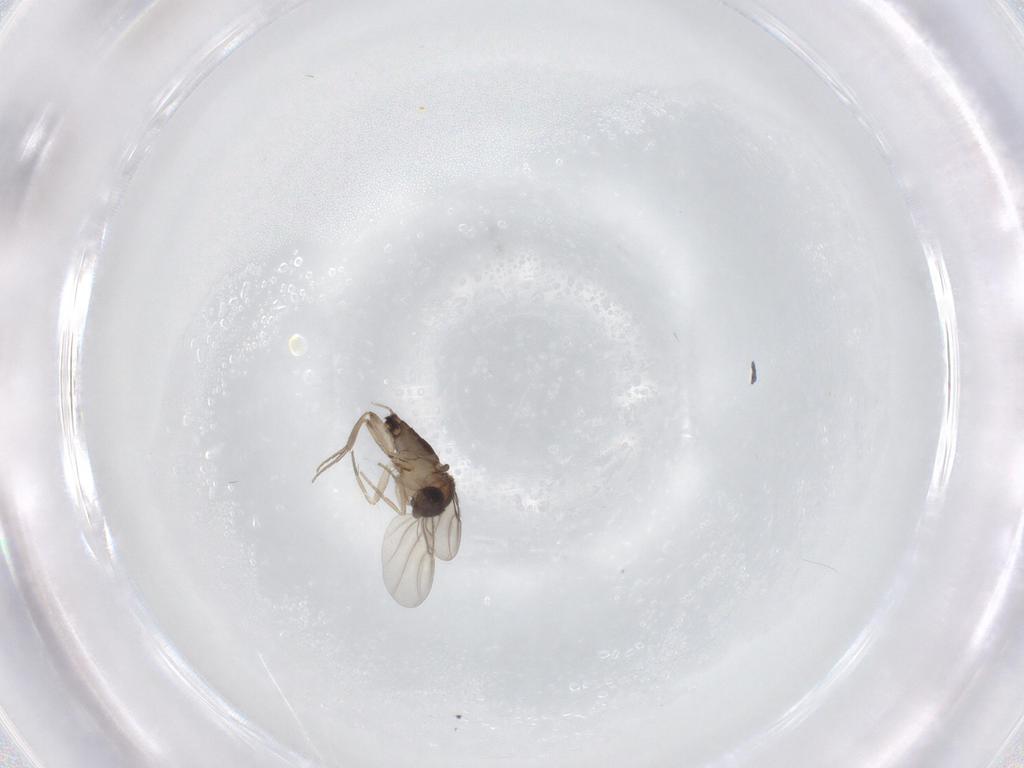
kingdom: Animalia
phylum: Arthropoda
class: Insecta
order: Diptera
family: Phoridae
